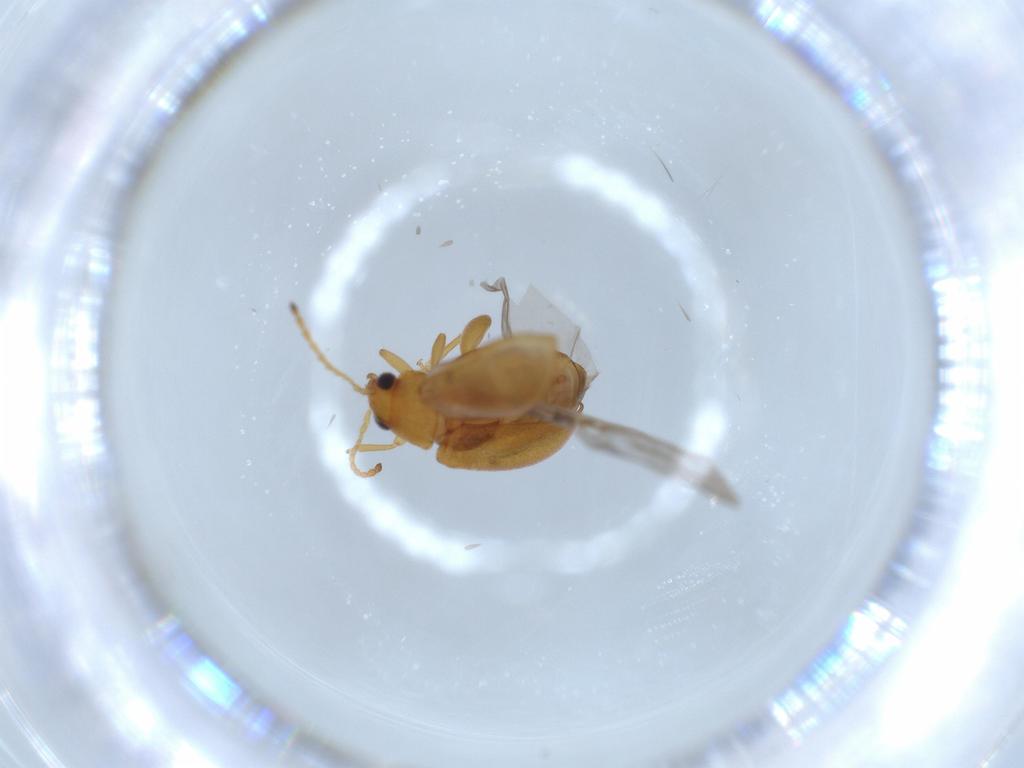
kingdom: Animalia
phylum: Arthropoda
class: Insecta
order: Coleoptera
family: Chrysomelidae
